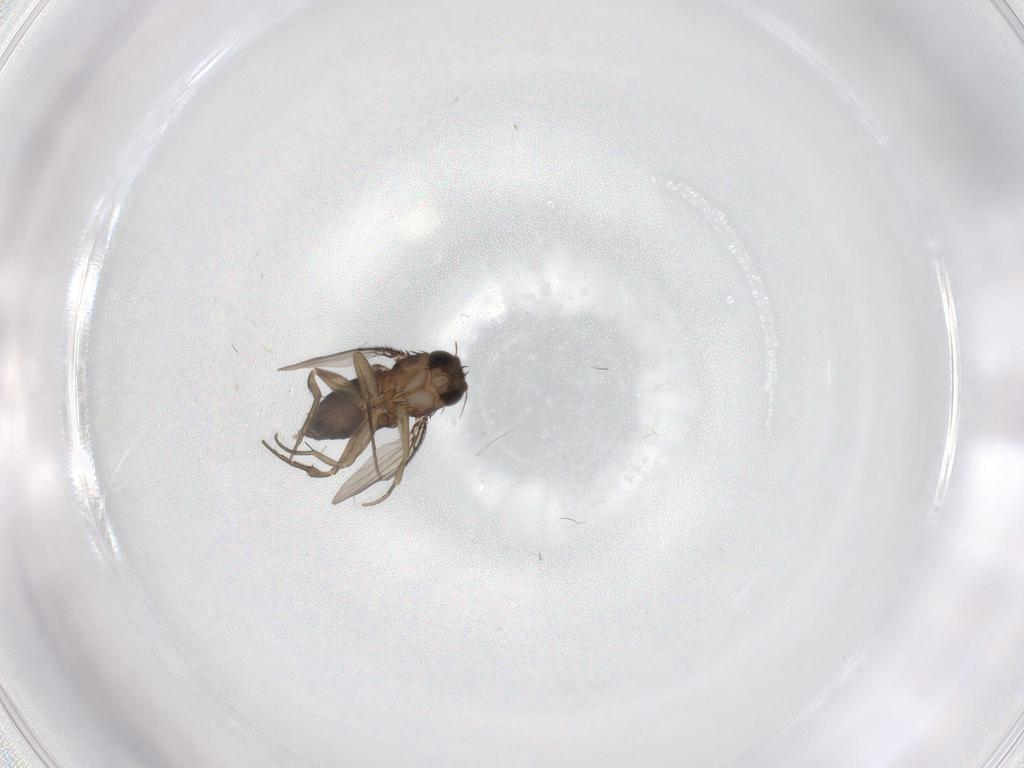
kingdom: Animalia
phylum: Arthropoda
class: Insecta
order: Diptera
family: Phoridae
